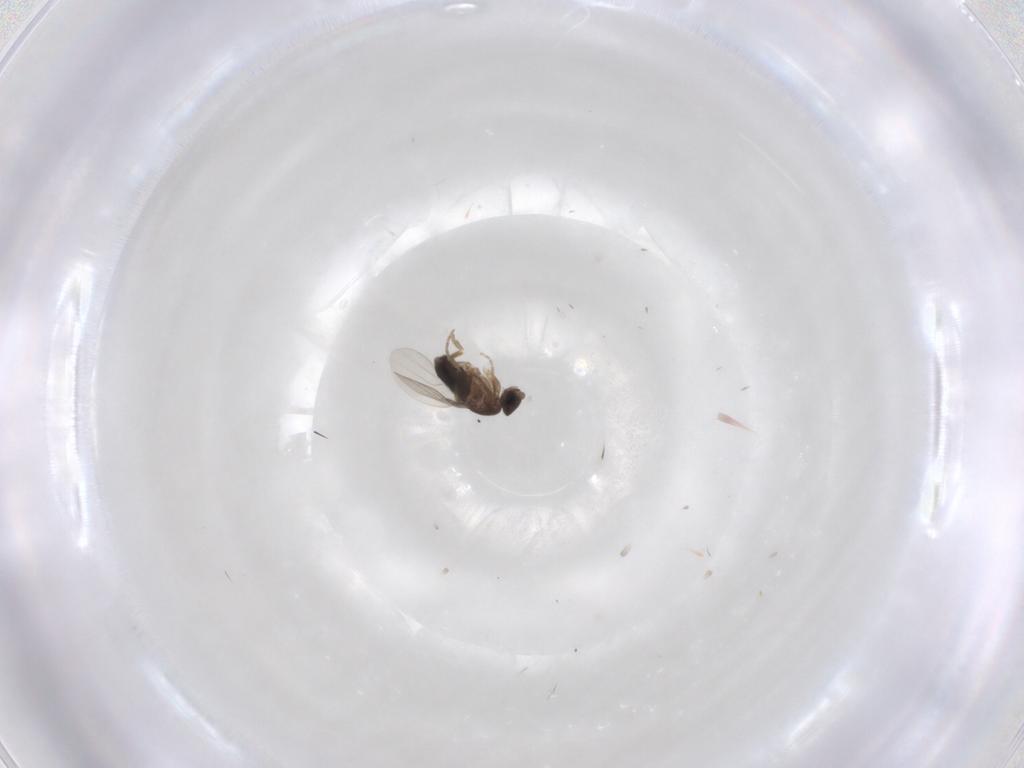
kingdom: Animalia
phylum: Arthropoda
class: Insecta
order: Diptera
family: Phoridae
